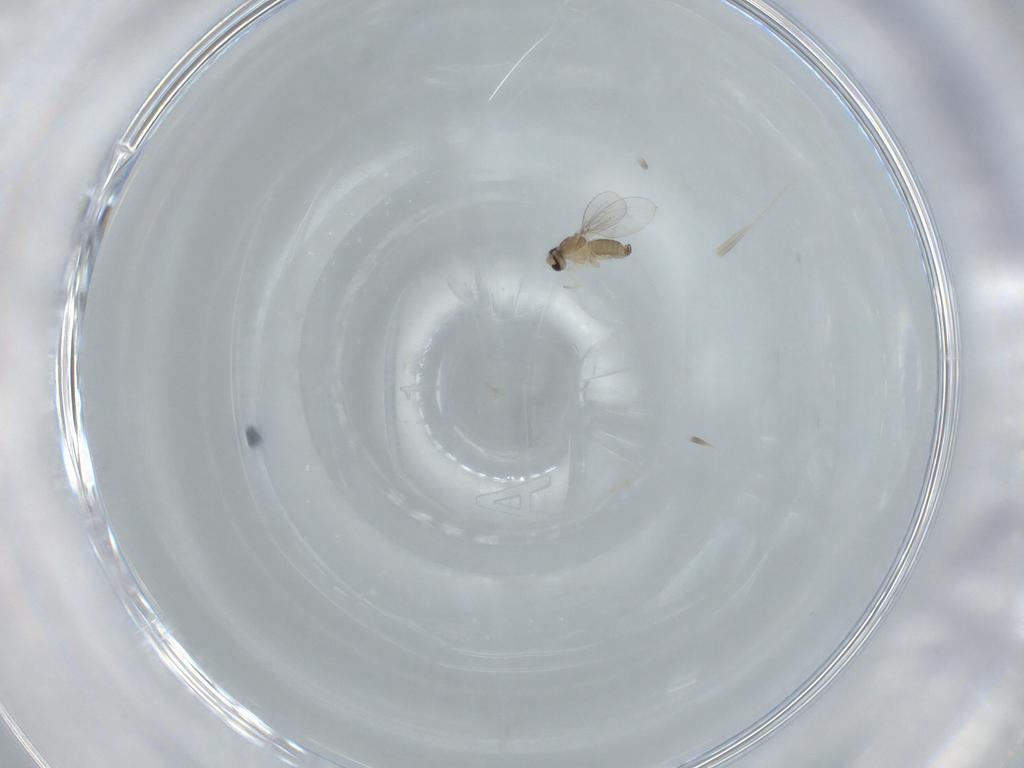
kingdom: Animalia
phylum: Arthropoda
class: Insecta
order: Diptera
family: Cecidomyiidae
